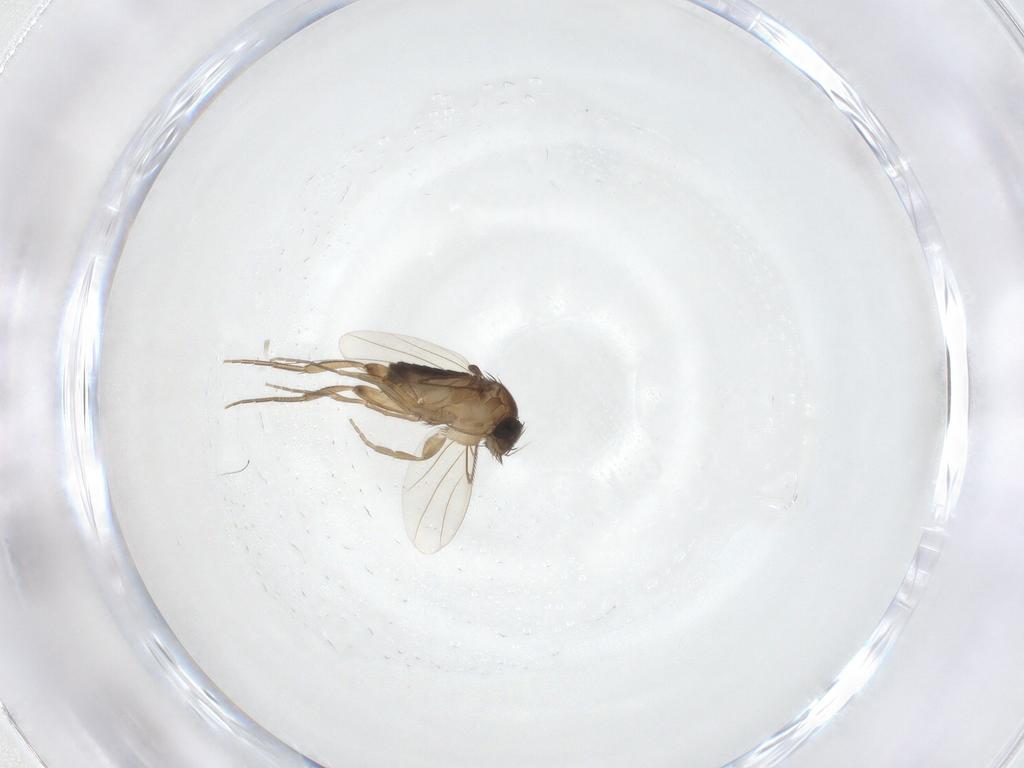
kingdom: Animalia
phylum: Arthropoda
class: Insecta
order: Diptera
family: Phoridae
